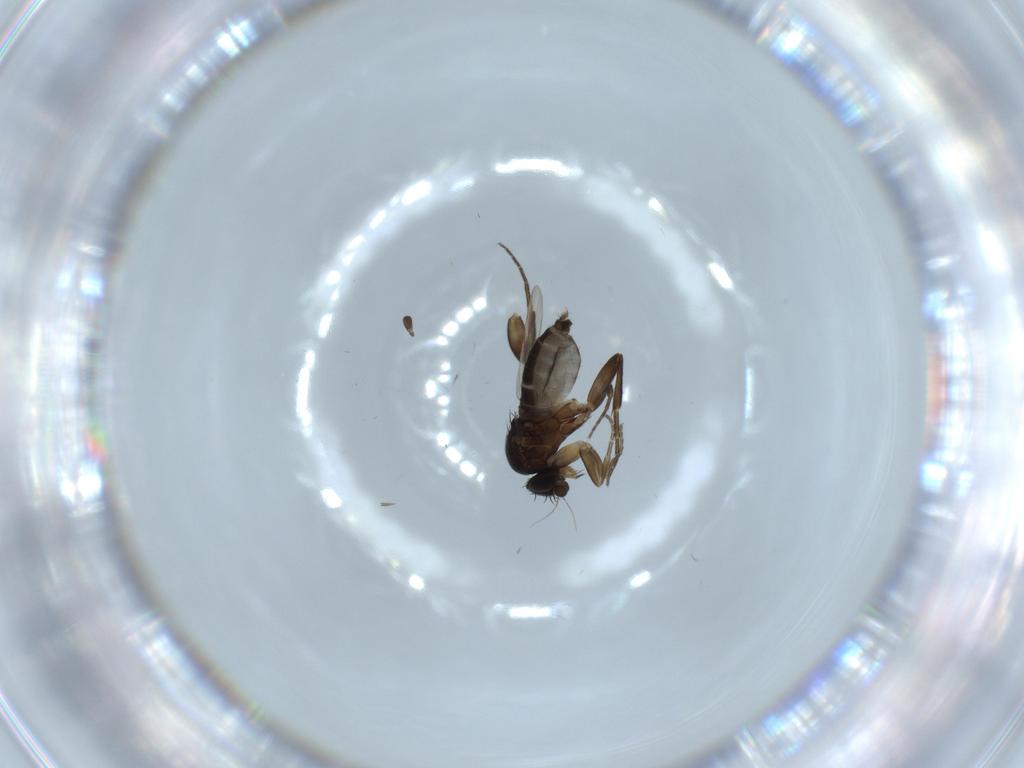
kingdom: Animalia
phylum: Arthropoda
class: Insecta
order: Diptera
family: Phoridae
